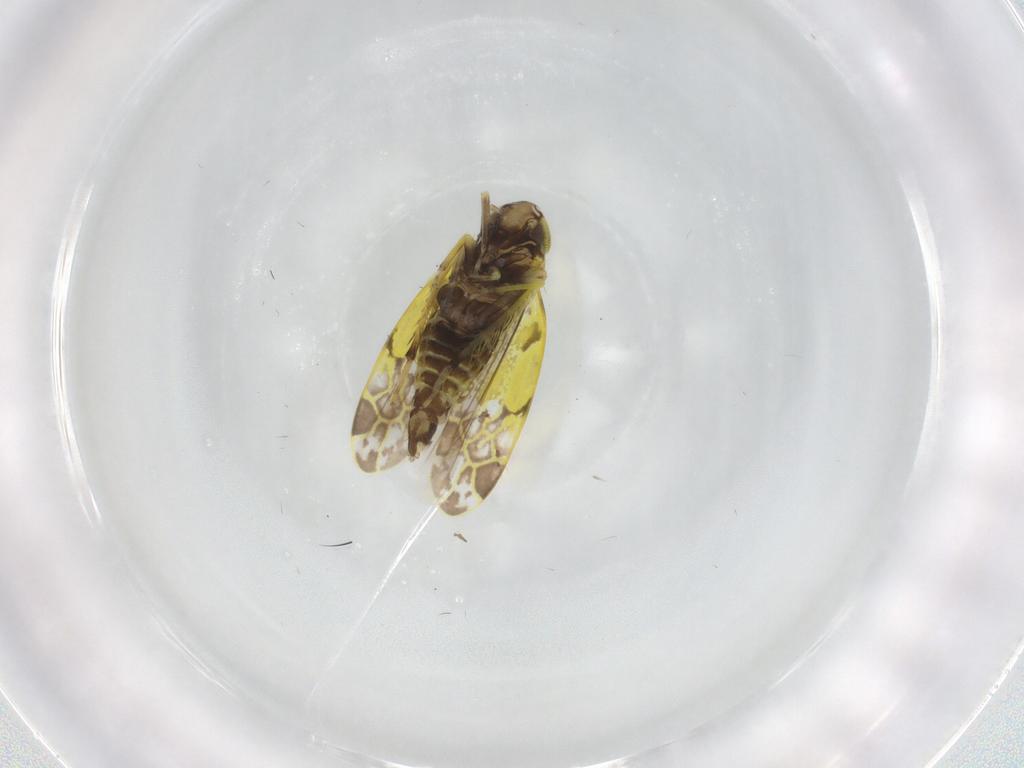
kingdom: Animalia
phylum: Arthropoda
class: Insecta
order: Hemiptera
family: Cicadellidae
